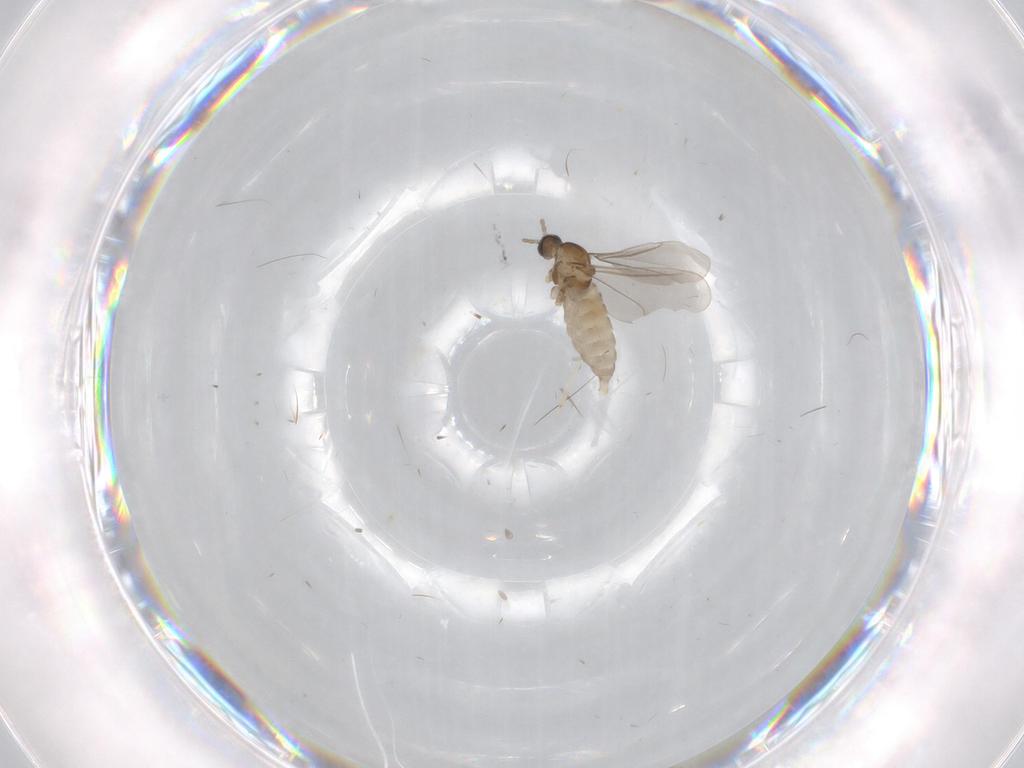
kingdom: Animalia
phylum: Arthropoda
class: Insecta
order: Diptera
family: Cecidomyiidae
